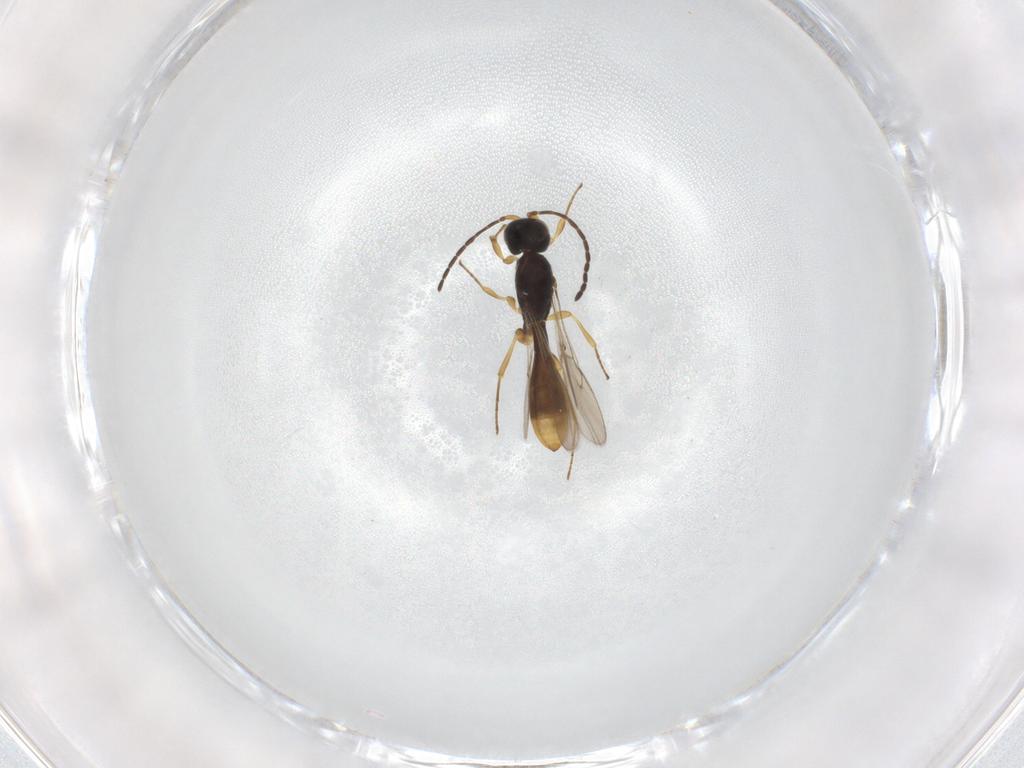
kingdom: Animalia
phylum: Arthropoda
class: Insecta
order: Hymenoptera
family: Scelionidae
